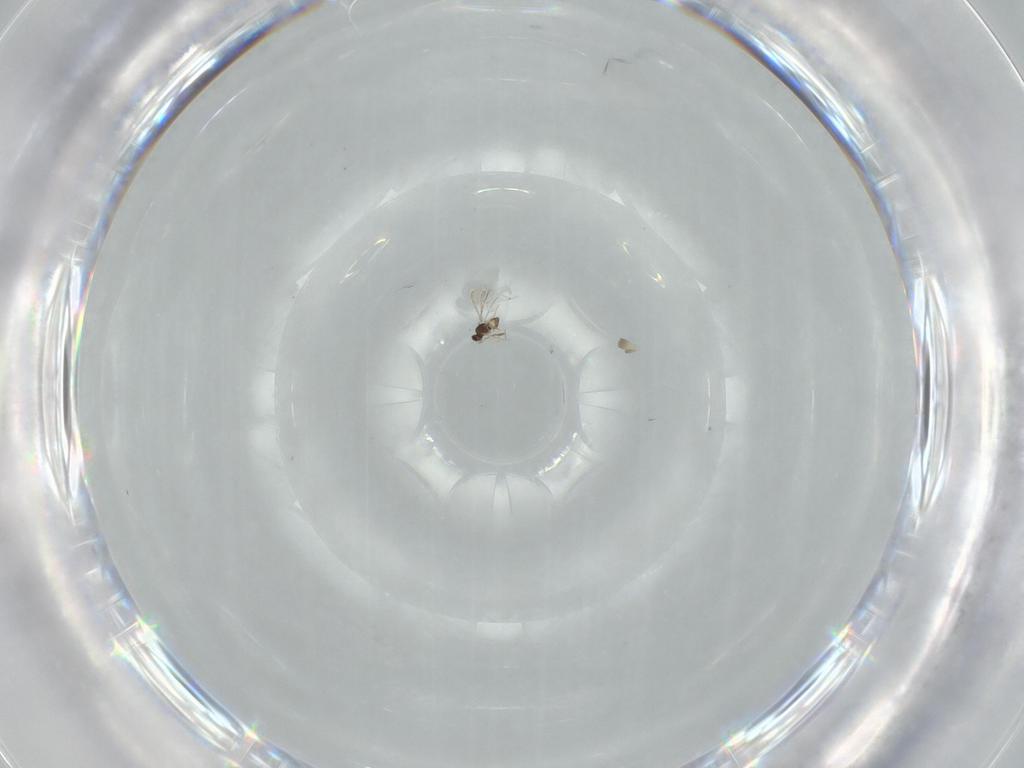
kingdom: Animalia
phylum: Arthropoda
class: Insecta
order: Hymenoptera
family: Mymaridae
